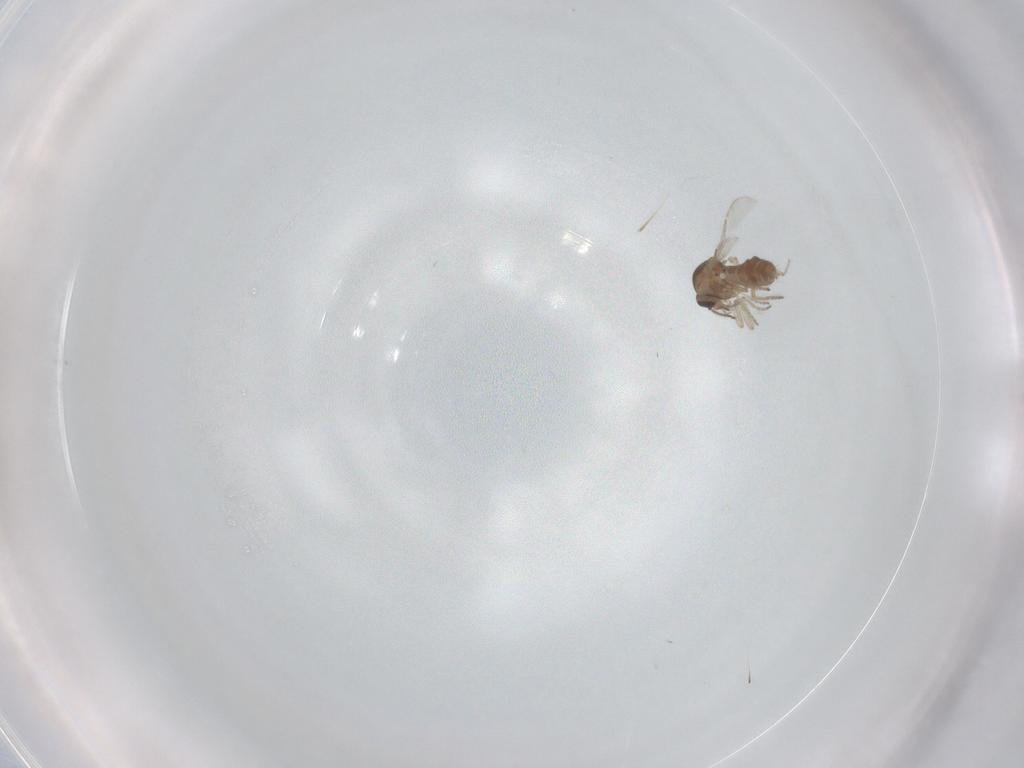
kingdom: Animalia
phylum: Arthropoda
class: Insecta
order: Diptera
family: Ceratopogonidae
